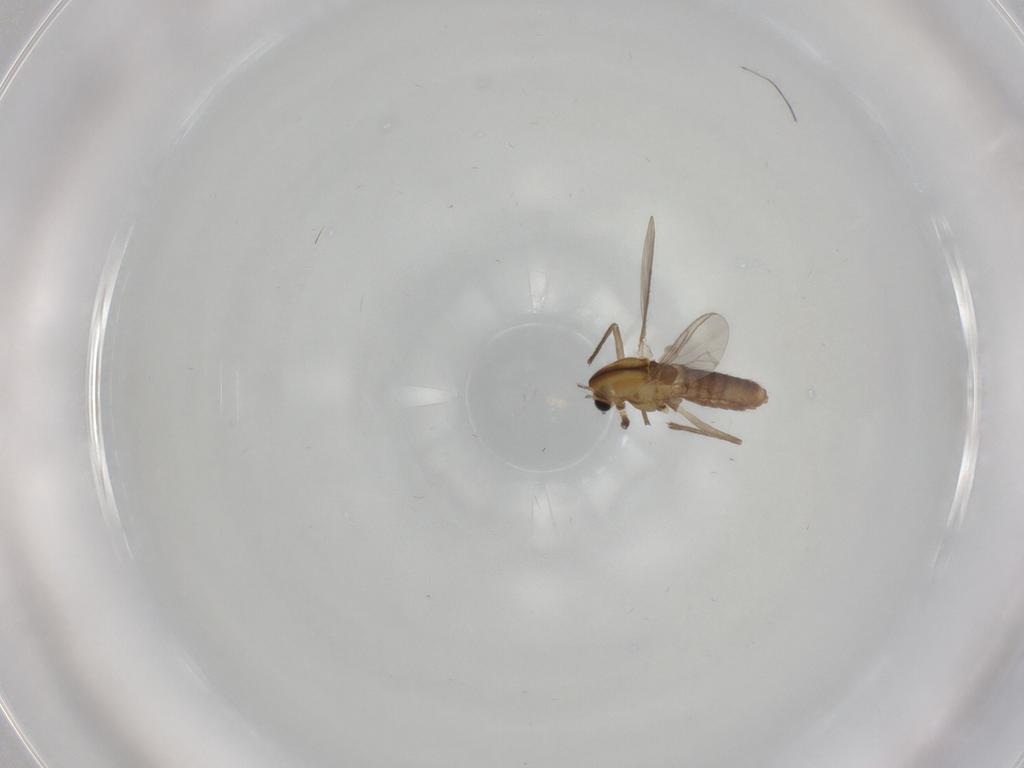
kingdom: Animalia
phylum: Arthropoda
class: Insecta
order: Diptera
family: Chironomidae
